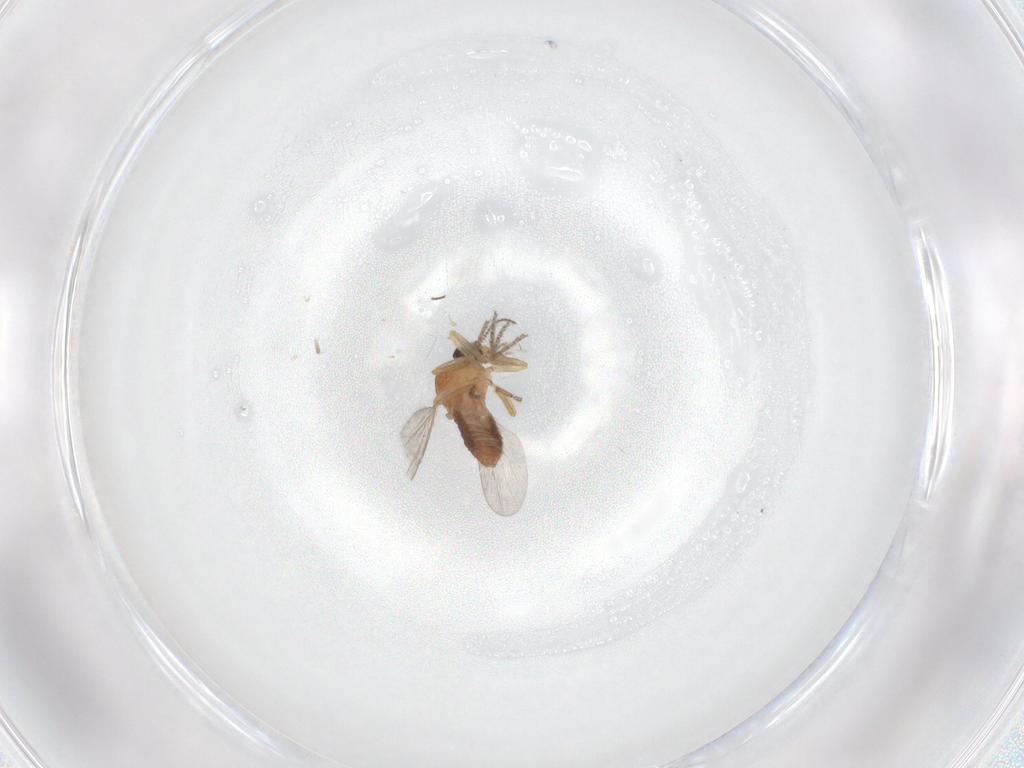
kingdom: Animalia
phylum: Arthropoda
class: Insecta
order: Diptera
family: Ceratopogonidae
